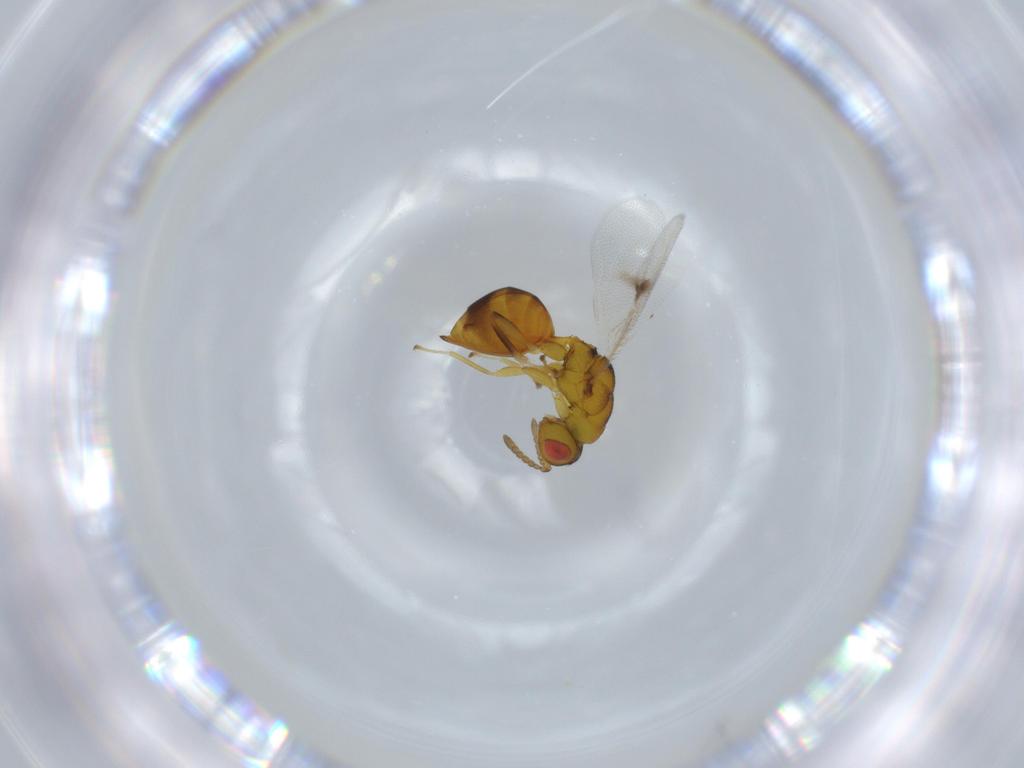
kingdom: Animalia
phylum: Arthropoda
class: Insecta
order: Hymenoptera
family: Eurytomidae
